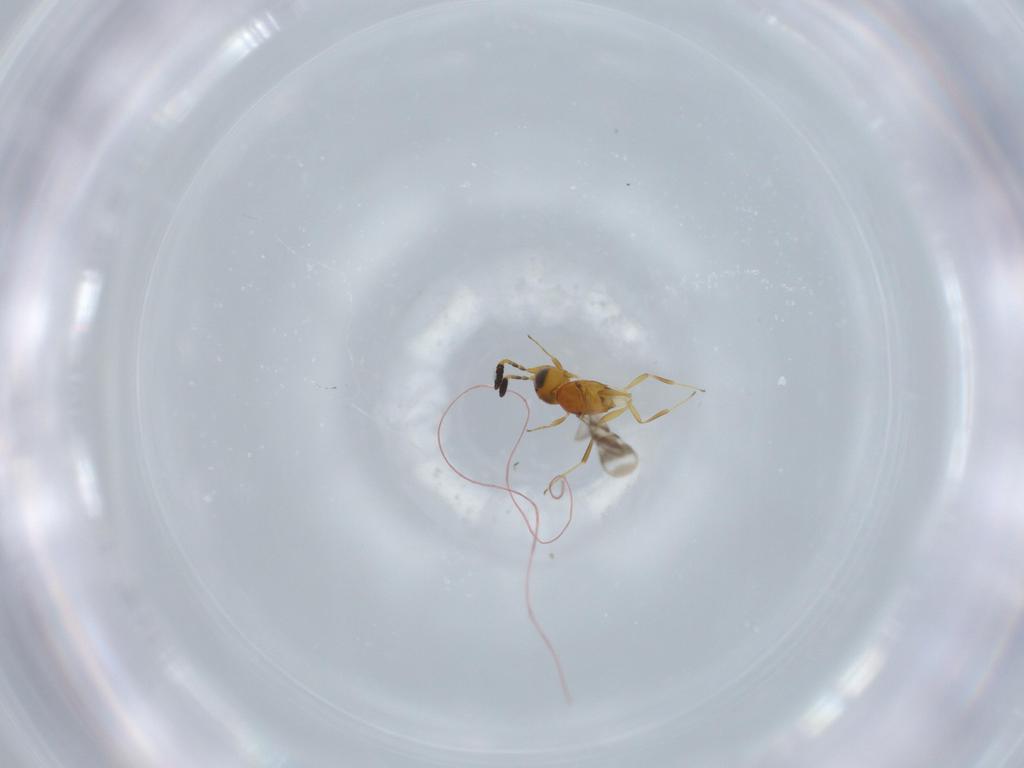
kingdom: Animalia
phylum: Arthropoda
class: Insecta
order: Hymenoptera
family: Scelionidae
